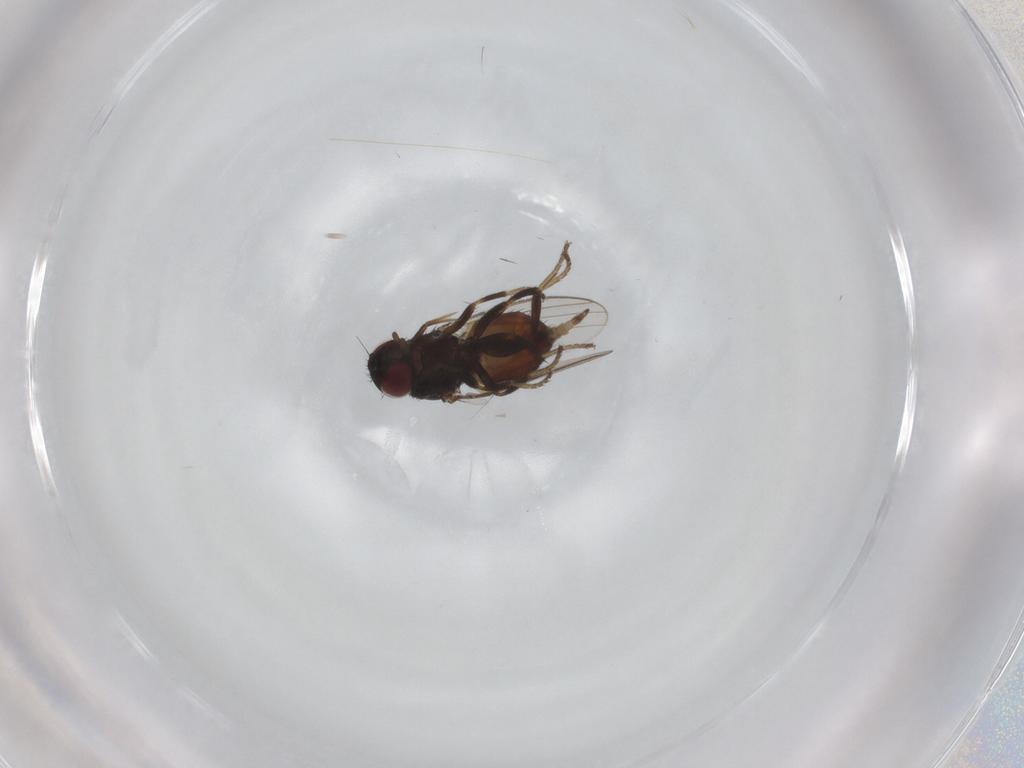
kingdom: Animalia
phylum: Arthropoda
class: Insecta
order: Diptera
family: Milichiidae
